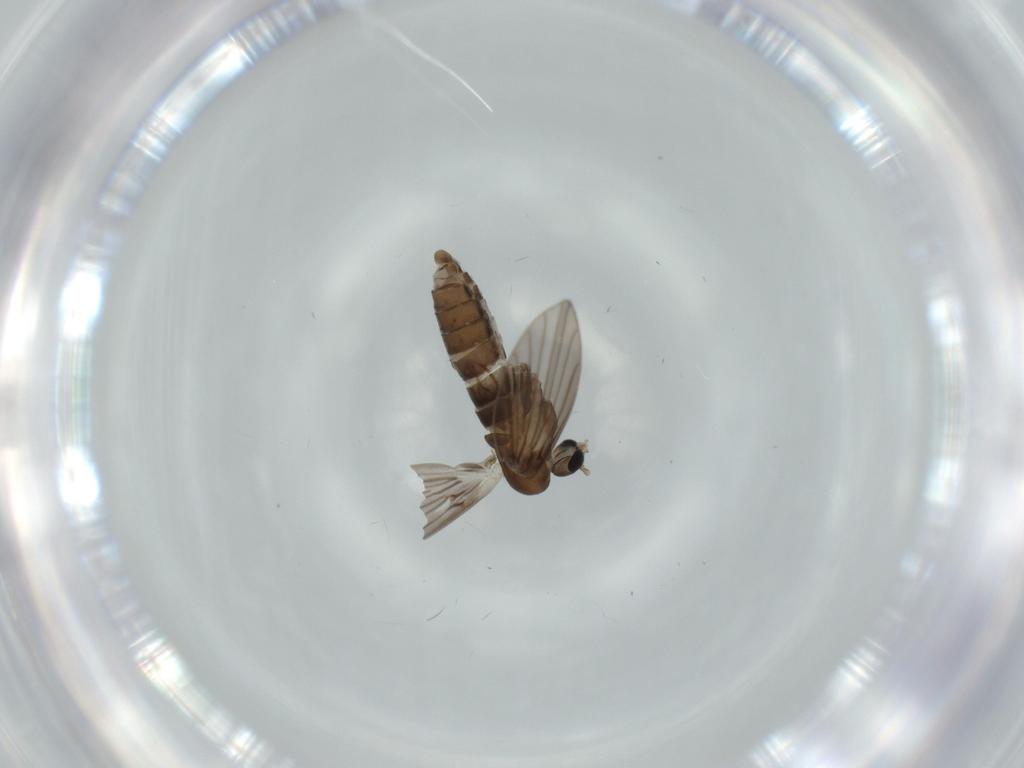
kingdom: Animalia
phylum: Arthropoda
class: Insecta
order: Diptera
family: Psychodidae
